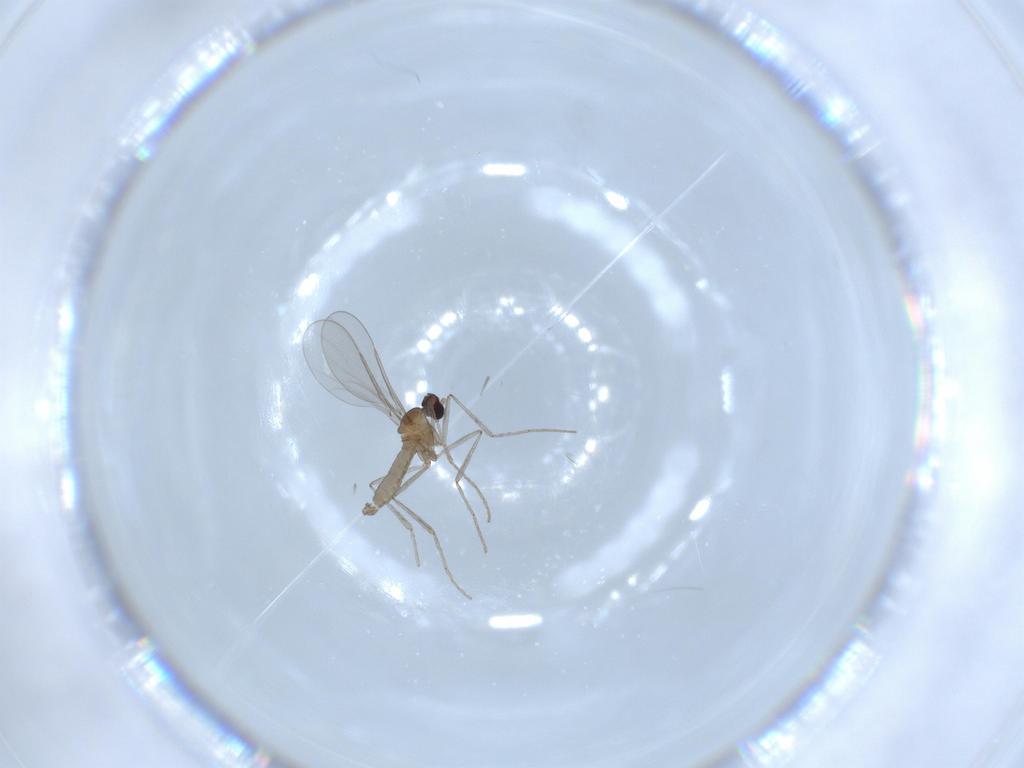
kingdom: Animalia
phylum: Arthropoda
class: Insecta
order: Diptera
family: Cecidomyiidae
